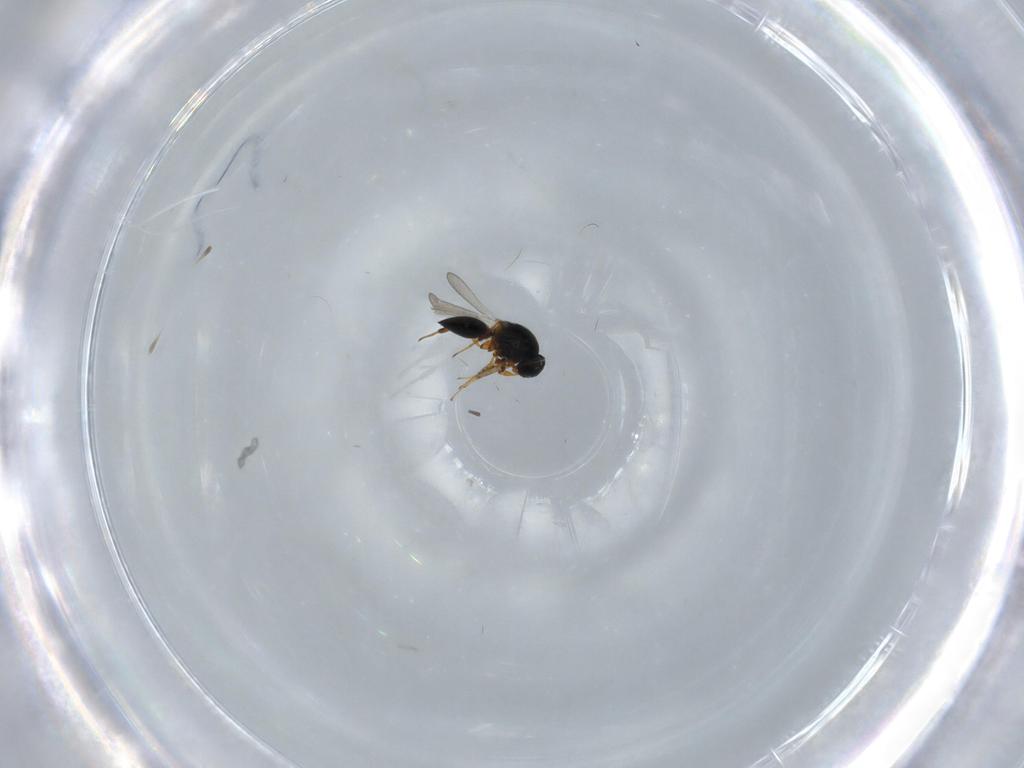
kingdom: Animalia
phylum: Arthropoda
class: Insecta
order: Hymenoptera
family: Platygastridae
